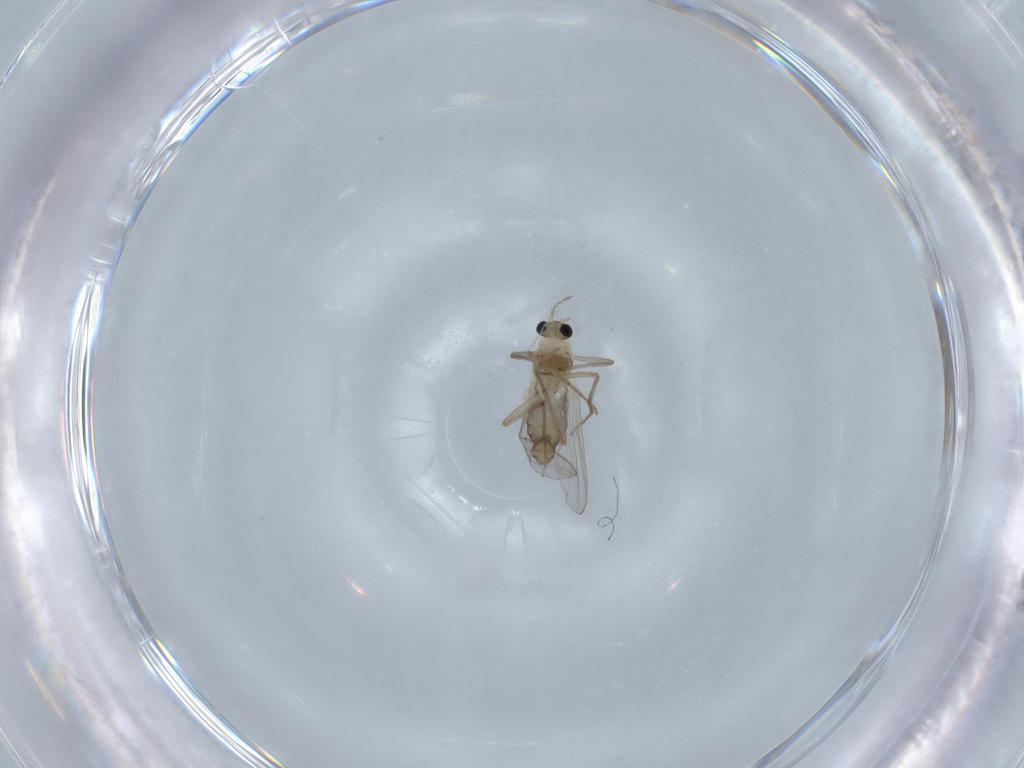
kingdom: Animalia
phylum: Arthropoda
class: Insecta
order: Diptera
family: Chironomidae
